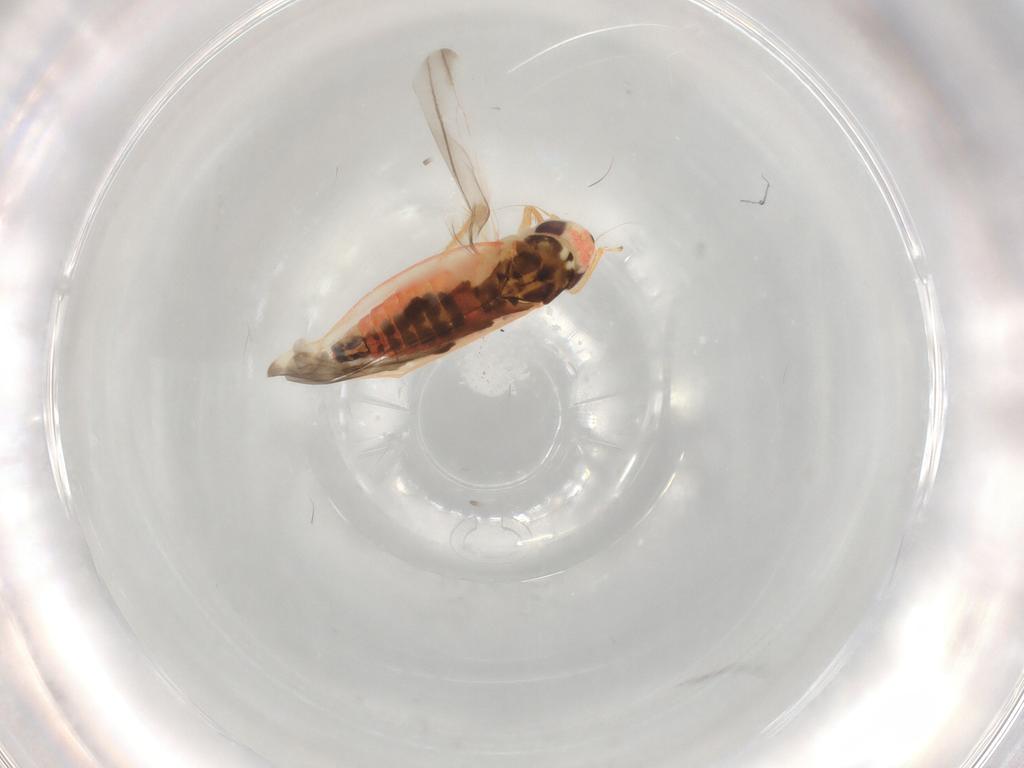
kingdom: Animalia
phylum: Arthropoda
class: Insecta
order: Hemiptera
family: Cicadellidae
